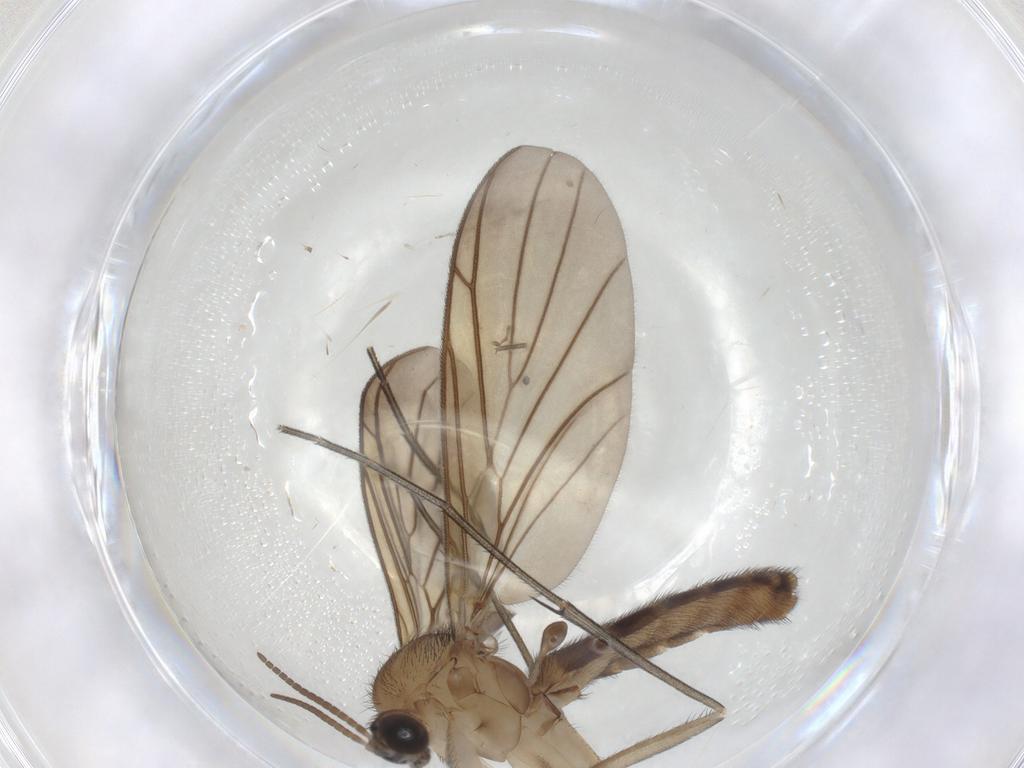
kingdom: Animalia
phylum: Arthropoda
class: Insecta
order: Diptera
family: Keroplatidae
